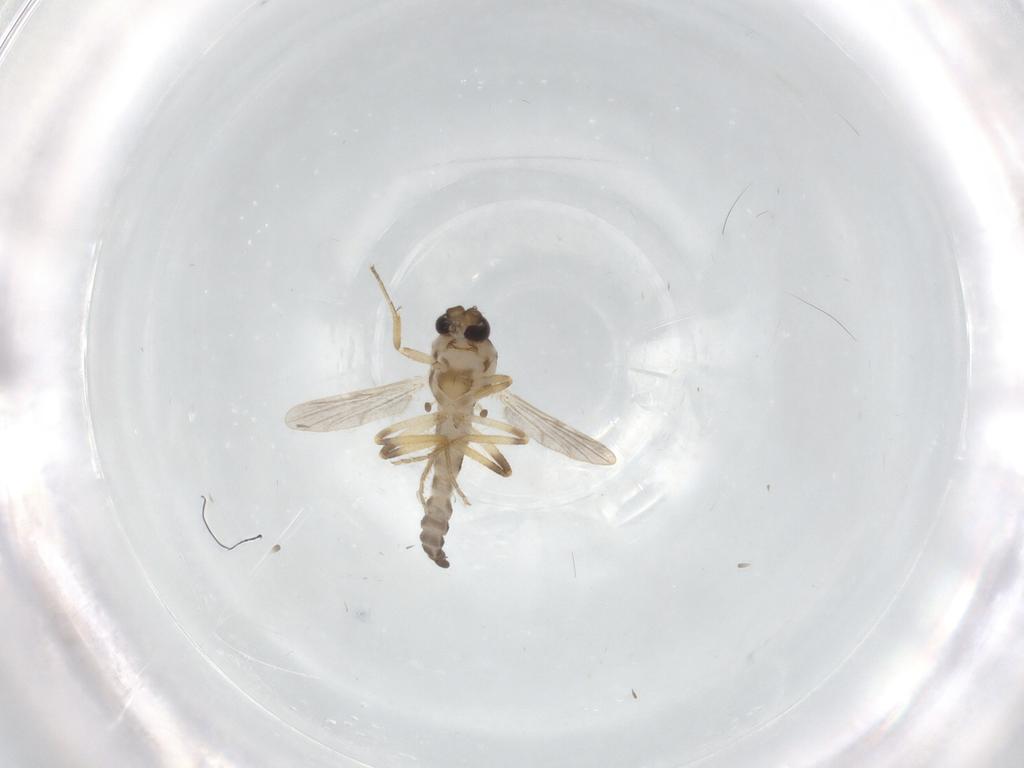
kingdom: Animalia
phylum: Arthropoda
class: Insecta
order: Diptera
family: Ceratopogonidae
